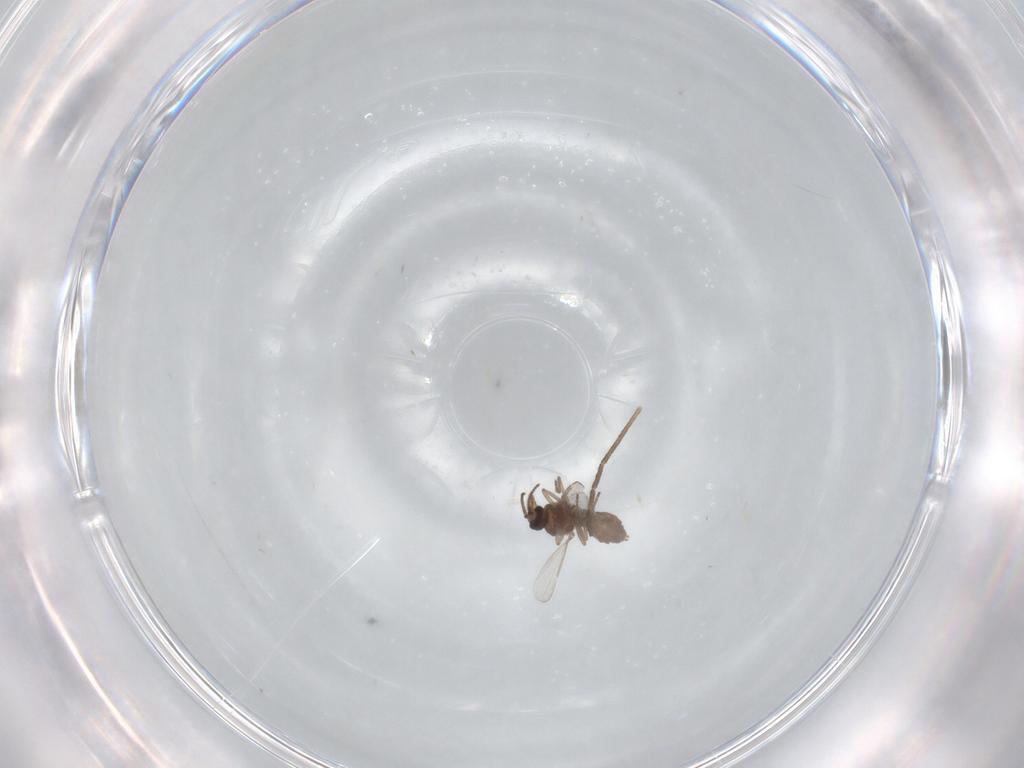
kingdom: Animalia
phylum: Arthropoda
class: Insecta
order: Diptera
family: Ceratopogonidae
